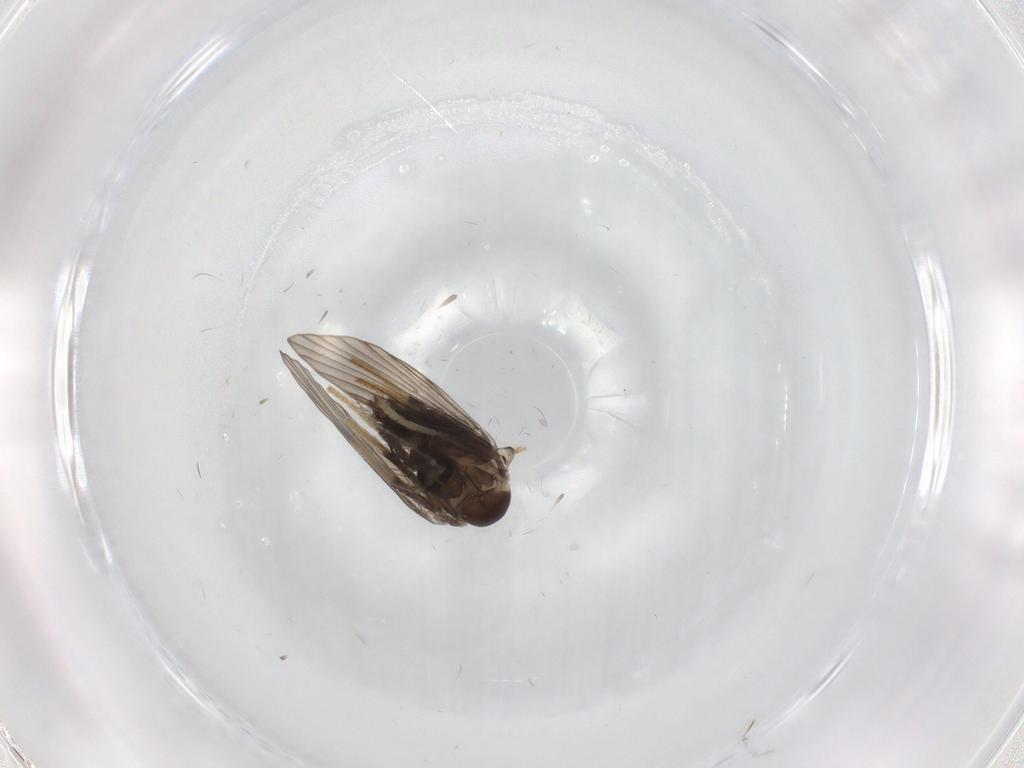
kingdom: Animalia
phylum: Arthropoda
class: Insecta
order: Diptera
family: Psychodidae
